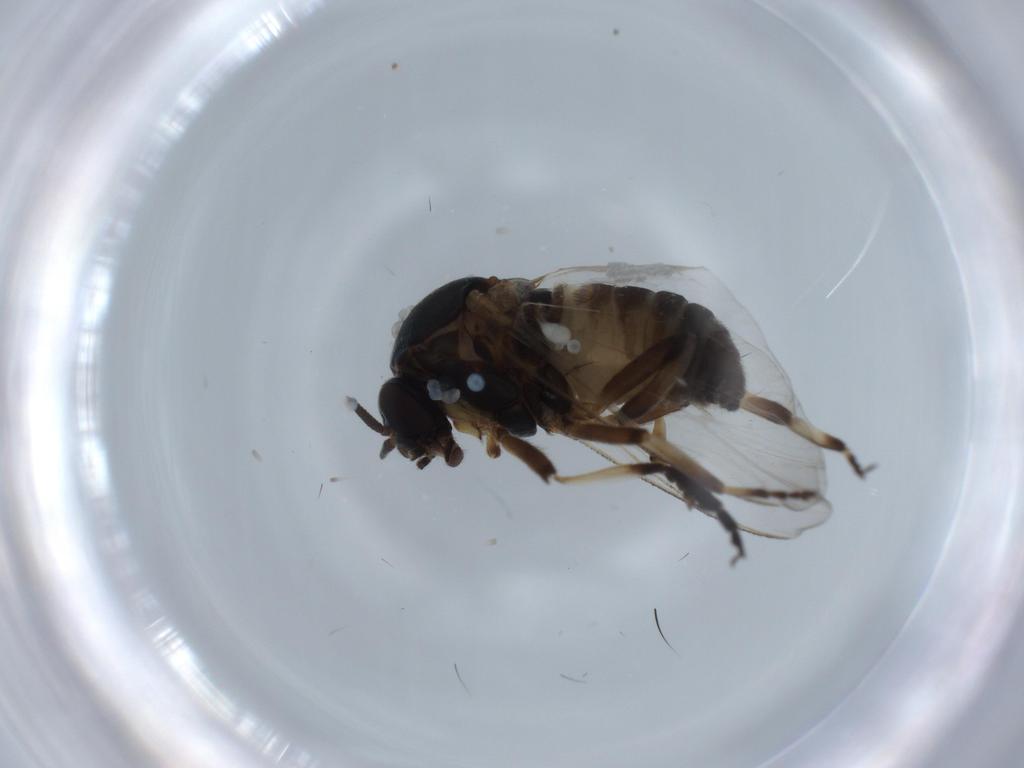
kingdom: Animalia
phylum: Arthropoda
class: Insecta
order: Diptera
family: Simuliidae
